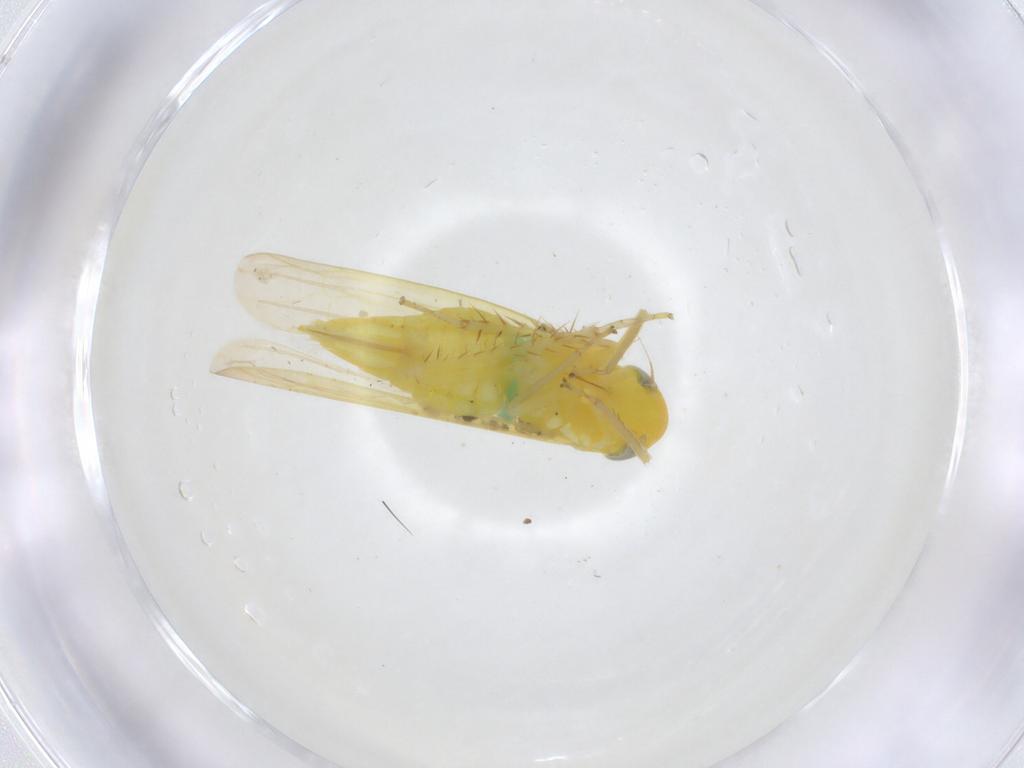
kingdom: Animalia
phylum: Arthropoda
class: Insecta
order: Hemiptera
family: Cicadellidae
